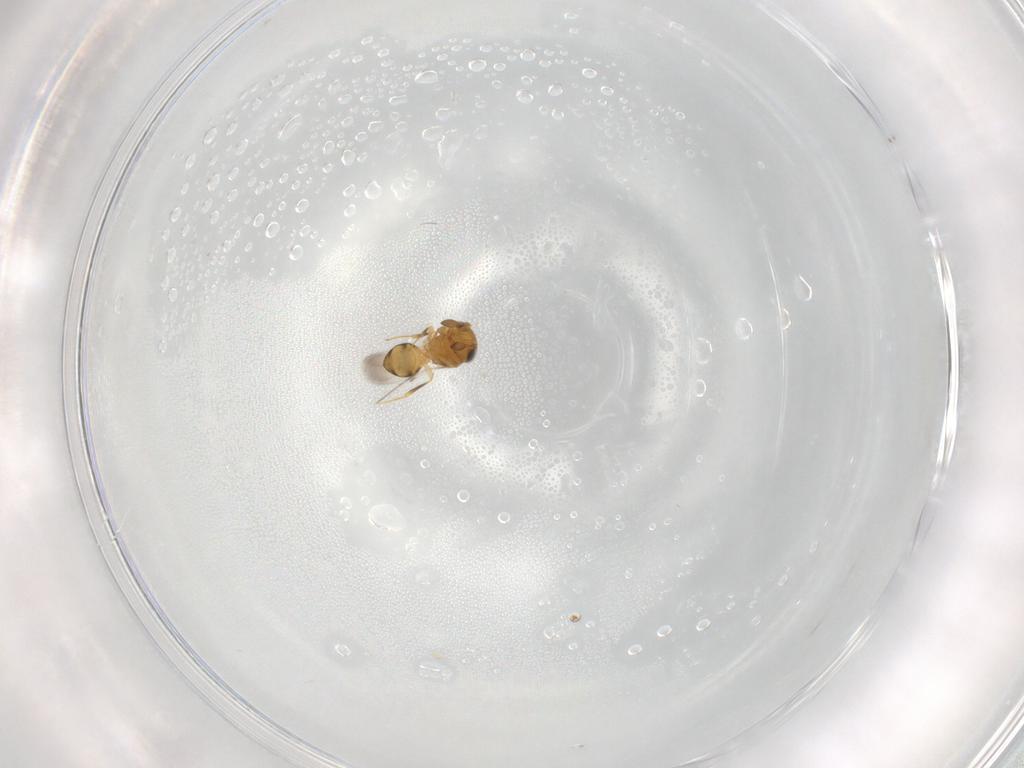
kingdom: Animalia
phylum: Arthropoda
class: Insecta
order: Hymenoptera
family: Scelionidae
